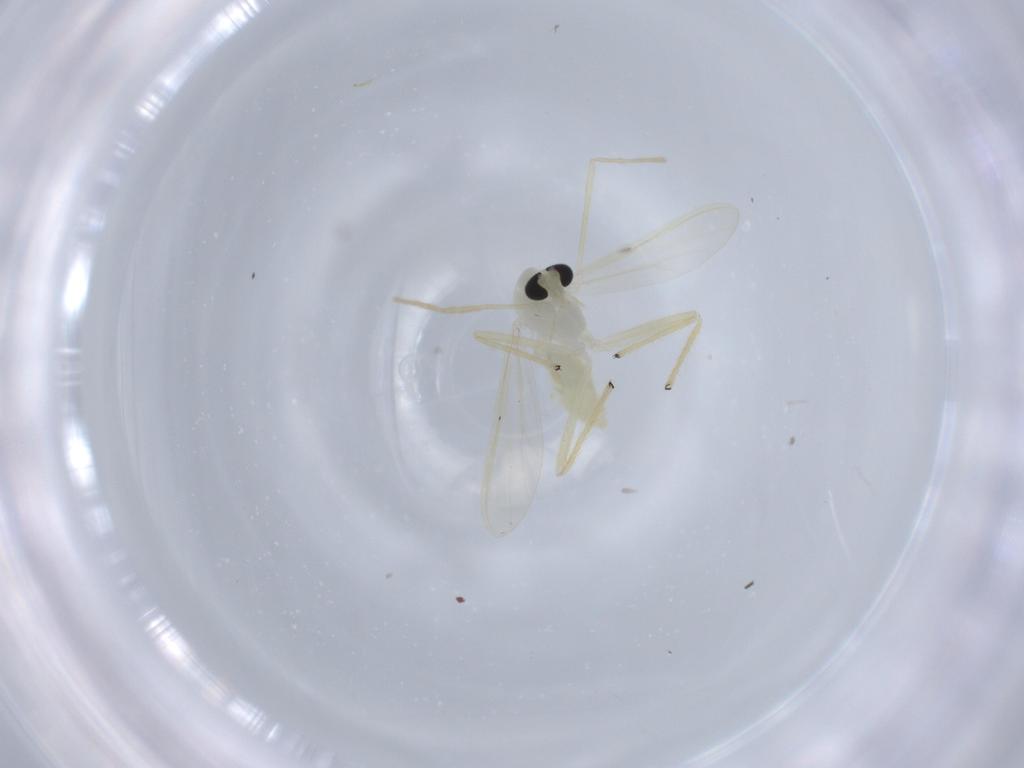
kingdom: Animalia
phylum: Arthropoda
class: Insecta
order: Diptera
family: Chironomidae
